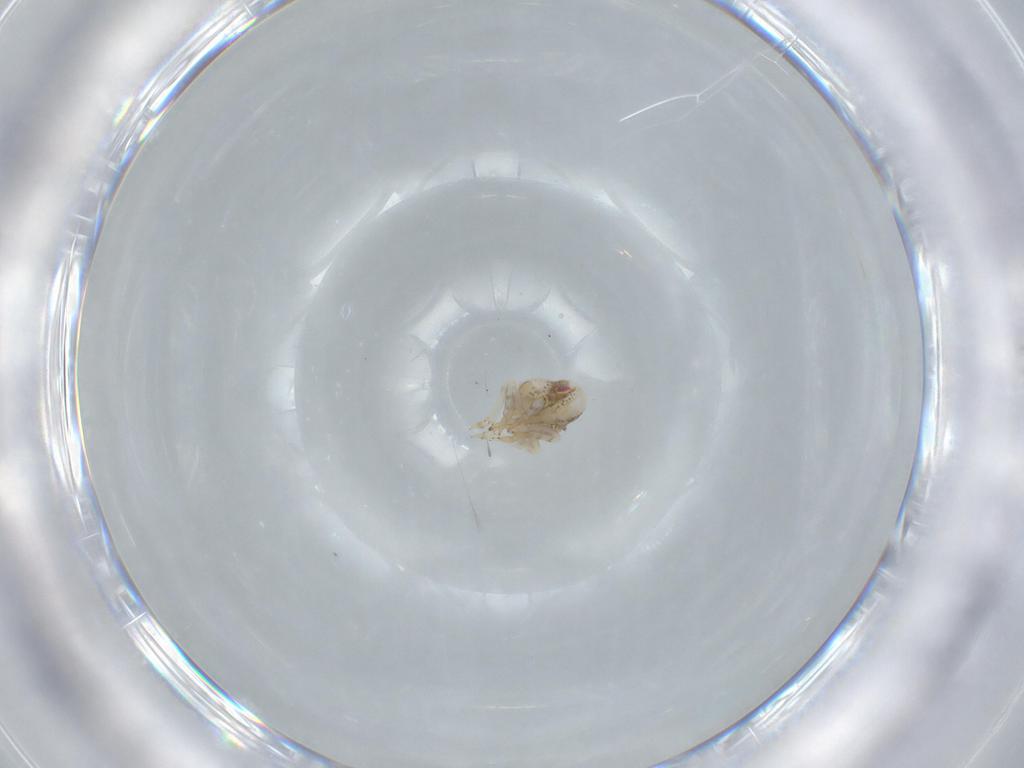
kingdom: Animalia
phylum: Arthropoda
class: Insecta
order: Hemiptera
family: Acanaloniidae
